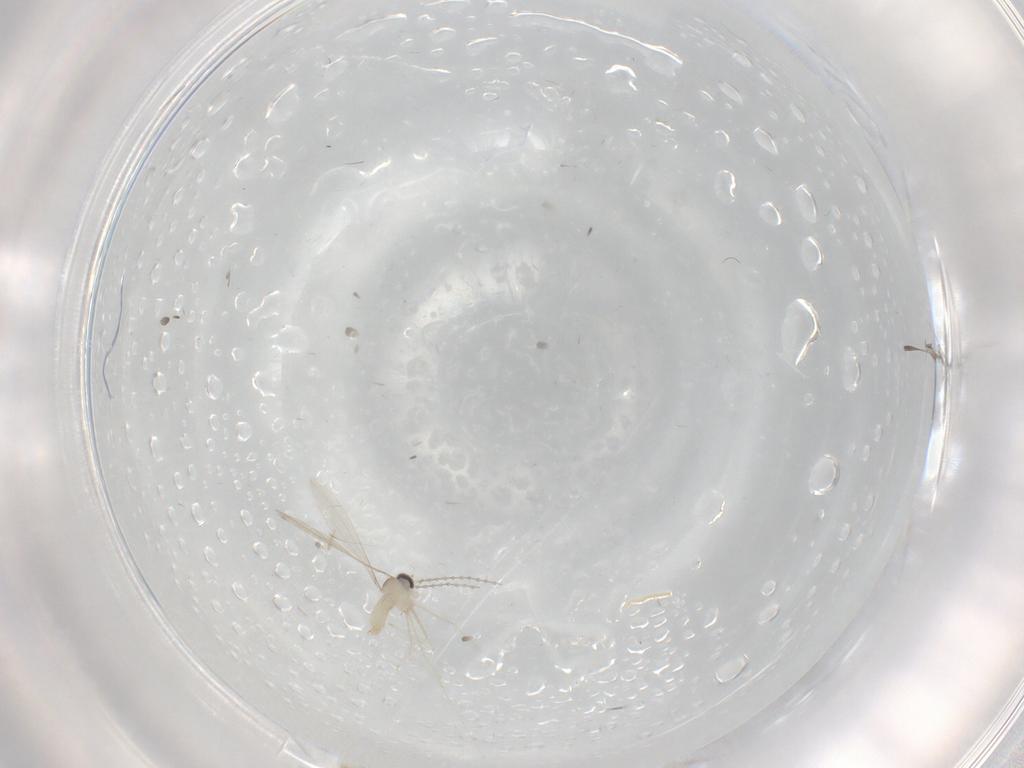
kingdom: Animalia
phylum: Arthropoda
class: Insecta
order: Diptera
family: Cecidomyiidae
